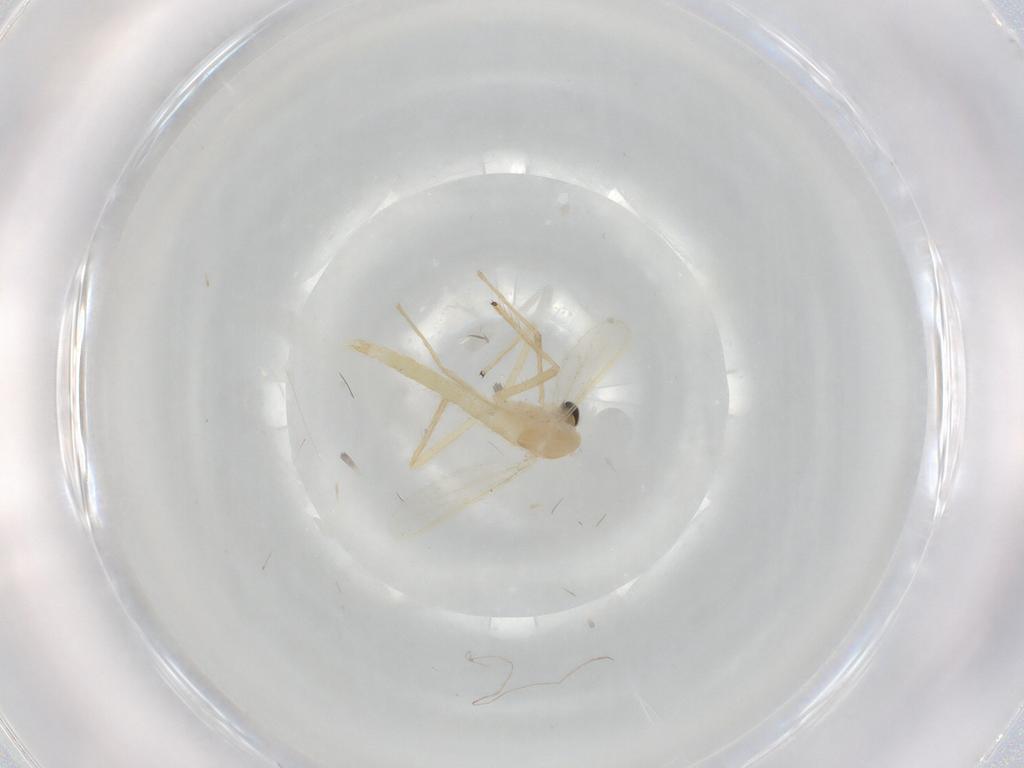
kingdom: Animalia
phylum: Arthropoda
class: Insecta
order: Diptera
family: Chironomidae
